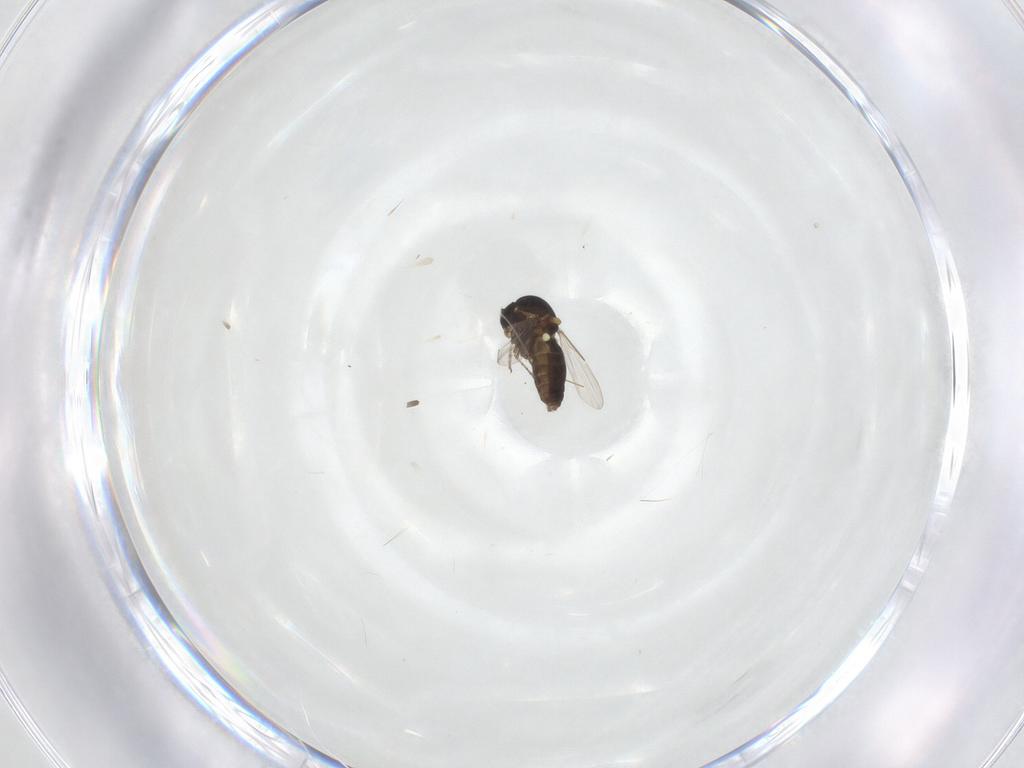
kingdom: Animalia
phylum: Arthropoda
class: Insecta
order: Diptera
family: Ceratopogonidae
